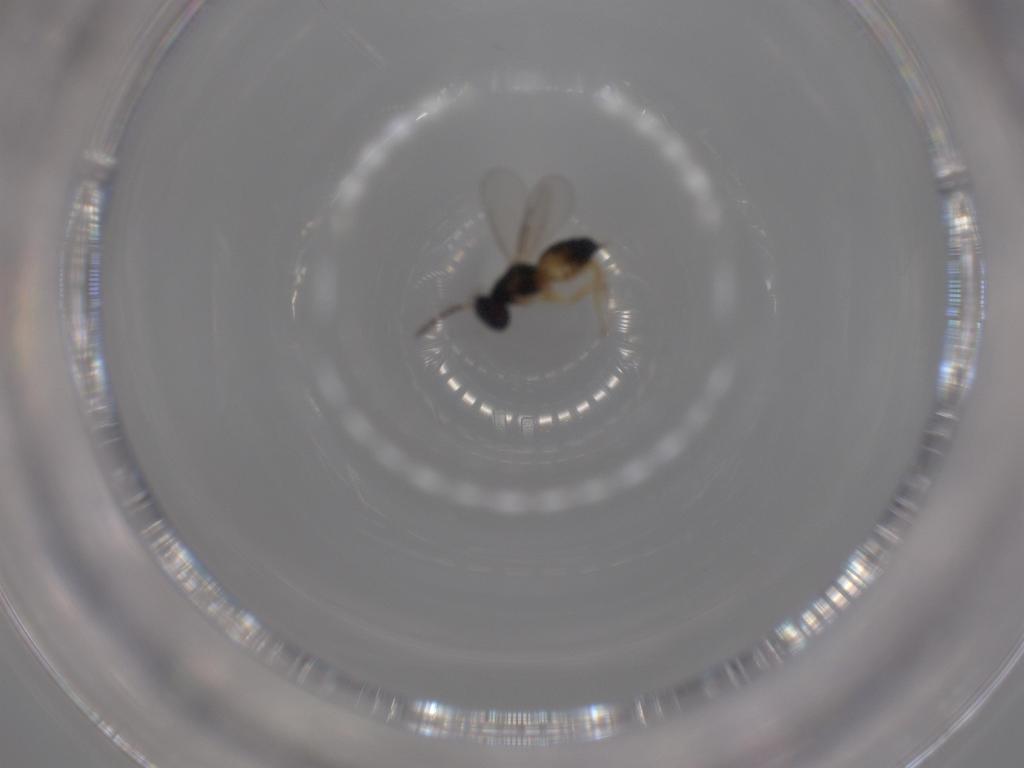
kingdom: Animalia
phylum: Arthropoda
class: Insecta
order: Hymenoptera
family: Eulophidae
